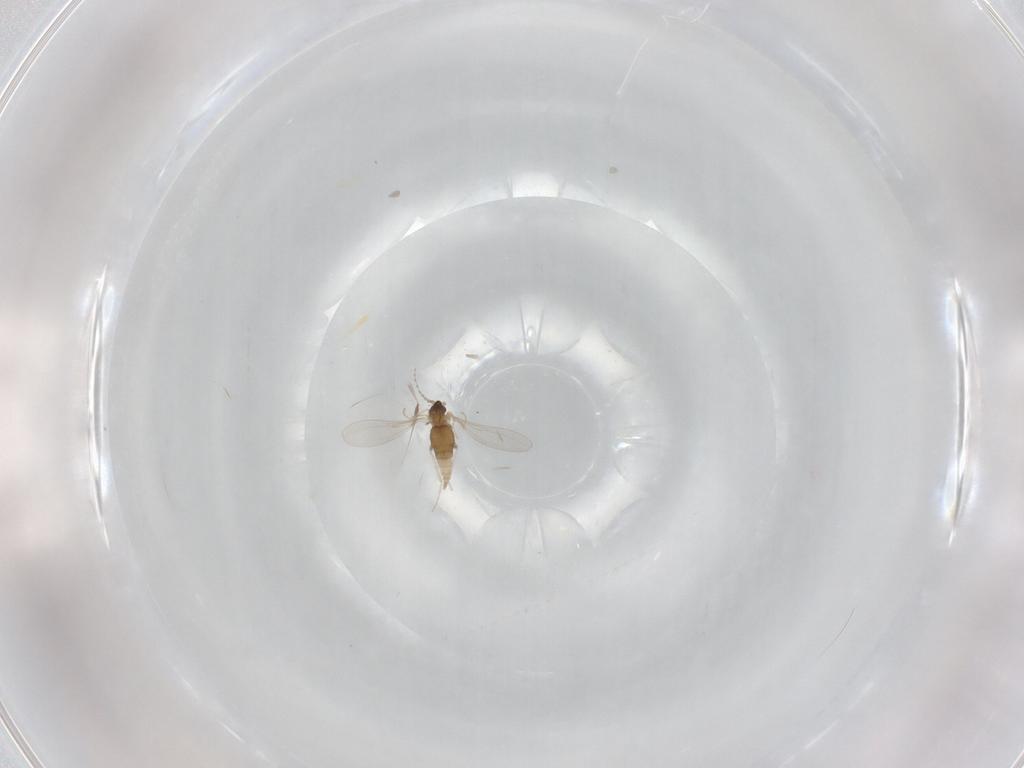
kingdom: Animalia
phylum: Arthropoda
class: Insecta
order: Diptera
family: Cecidomyiidae
